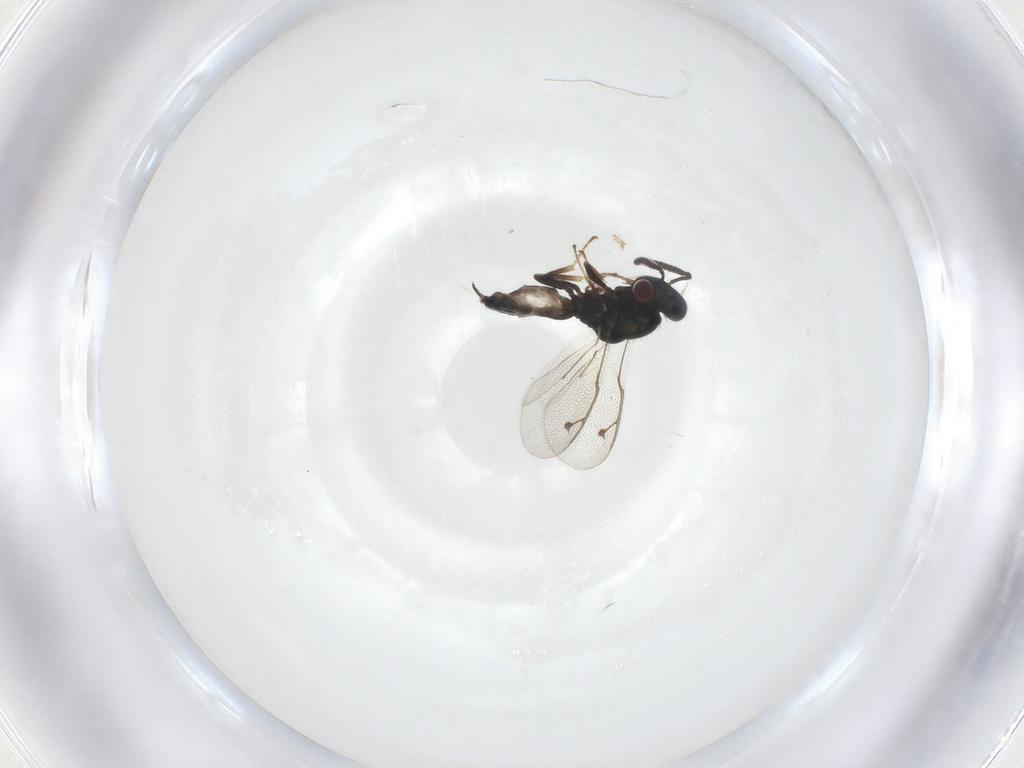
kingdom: Animalia
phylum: Arthropoda
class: Insecta
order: Hymenoptera
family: Pteromalidae
